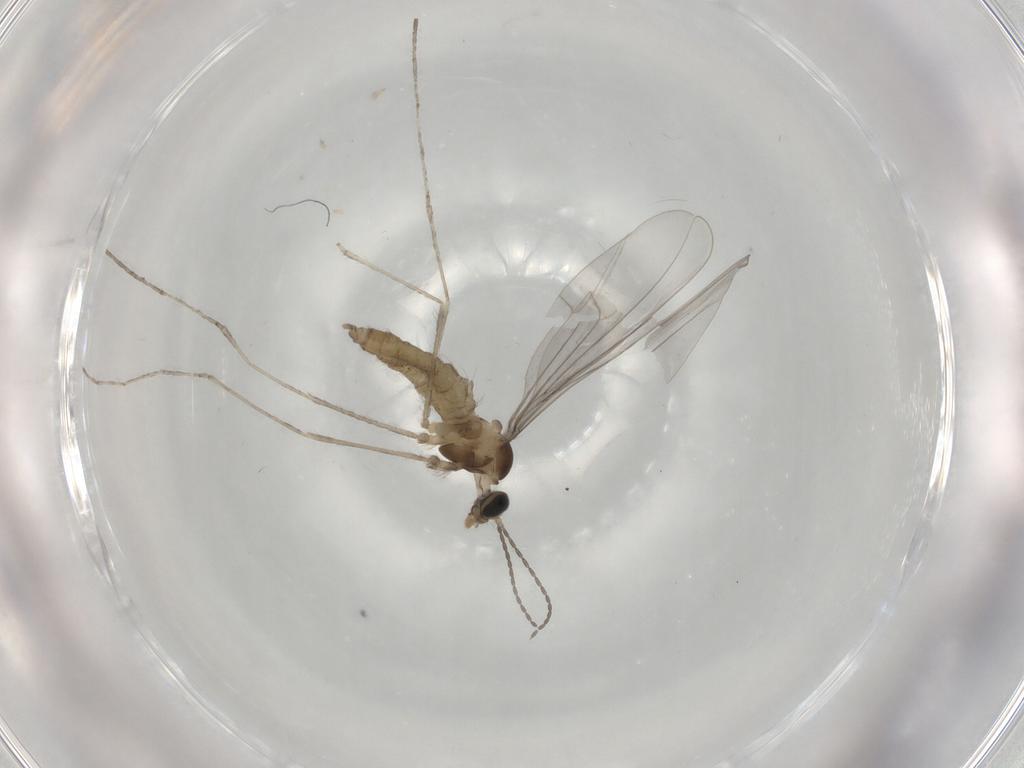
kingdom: Animalia
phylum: Arthropoda
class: Insecta
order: Diptera
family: Cecidomyiidae
